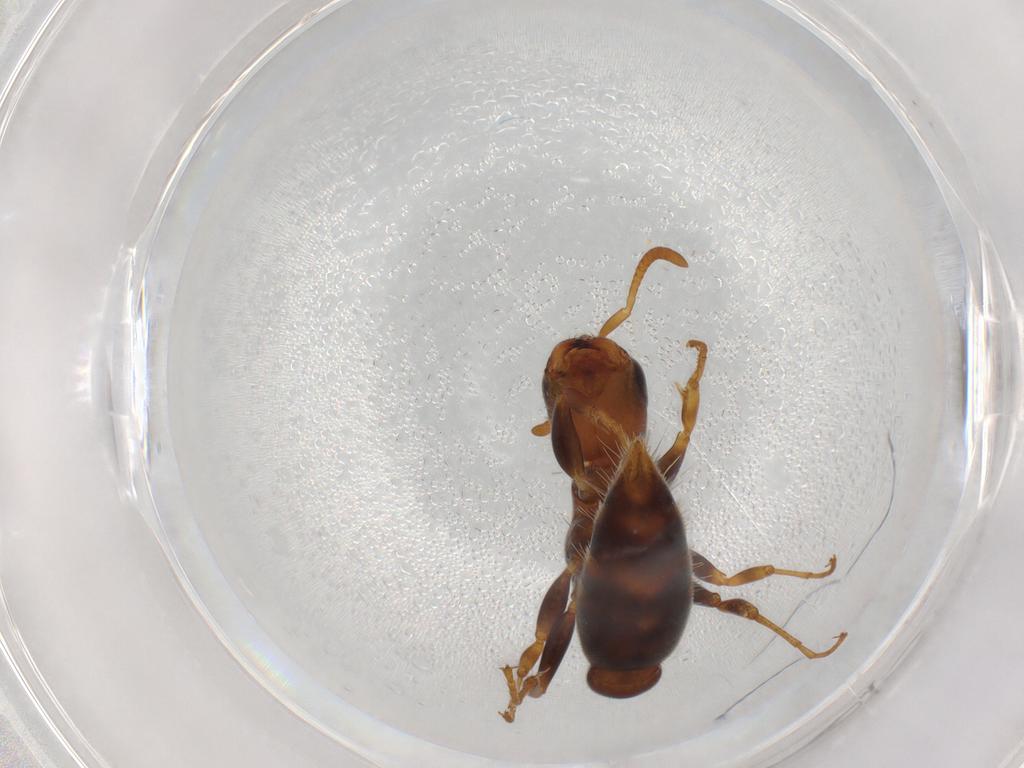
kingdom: Animalia
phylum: Arthropoda
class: Insecta
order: Hymenoptera
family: Formicidae
